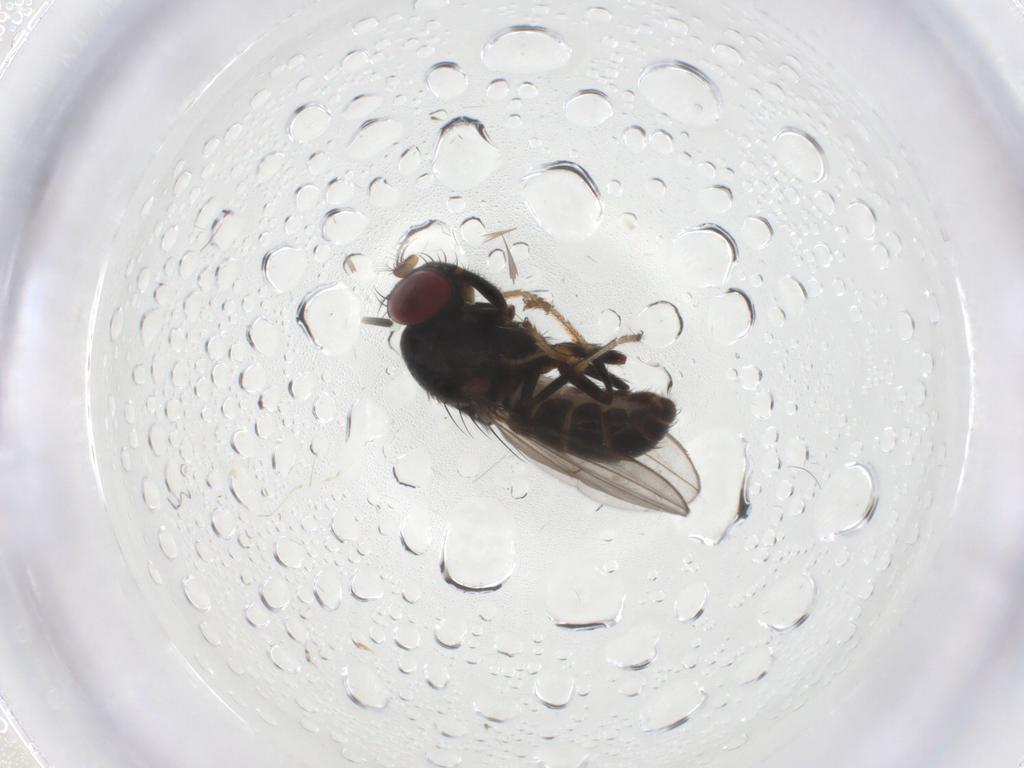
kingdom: Animalia
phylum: Arthropoda
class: Insecta
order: Diptera
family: Ephydridae
